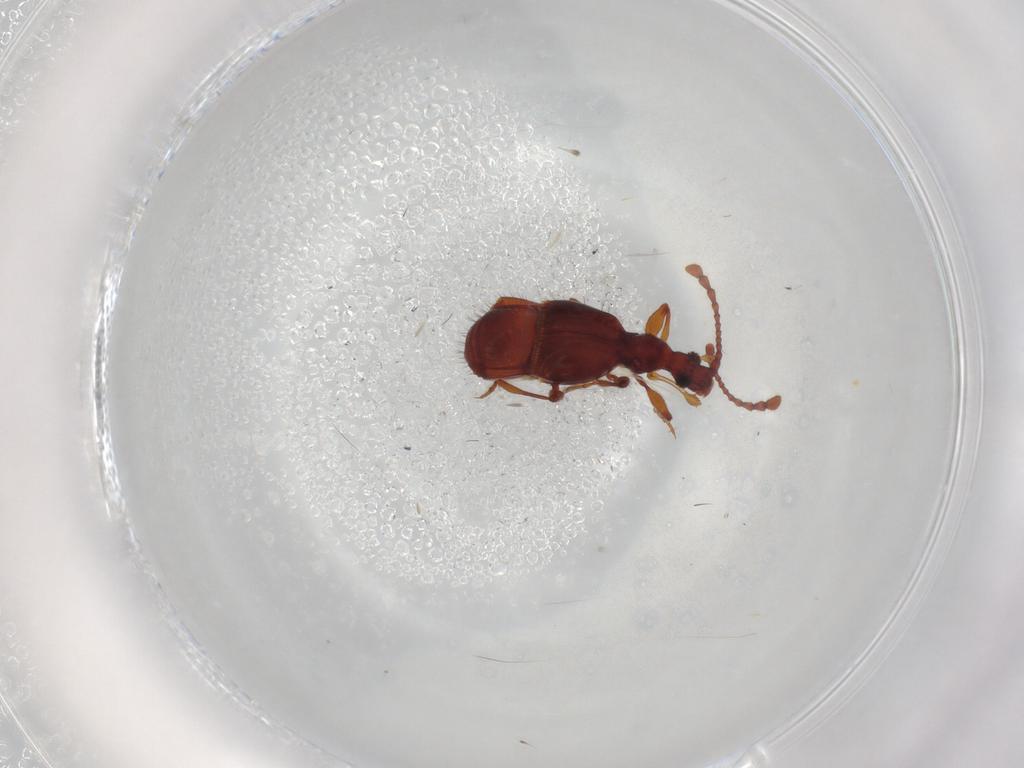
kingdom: Animalia
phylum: Arthropoda
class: Insecta
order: Coleoptera
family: Staphylinidae
